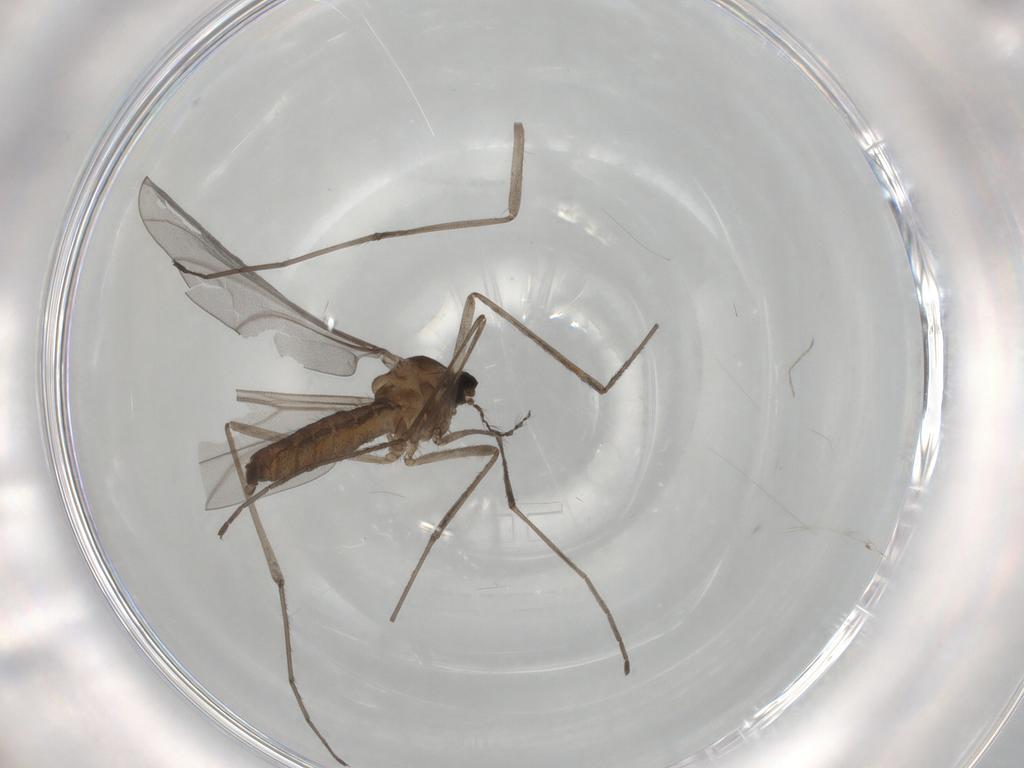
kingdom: Animalia
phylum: Arthropoda
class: Insecta
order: Diptera
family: Cecidomyiidae
